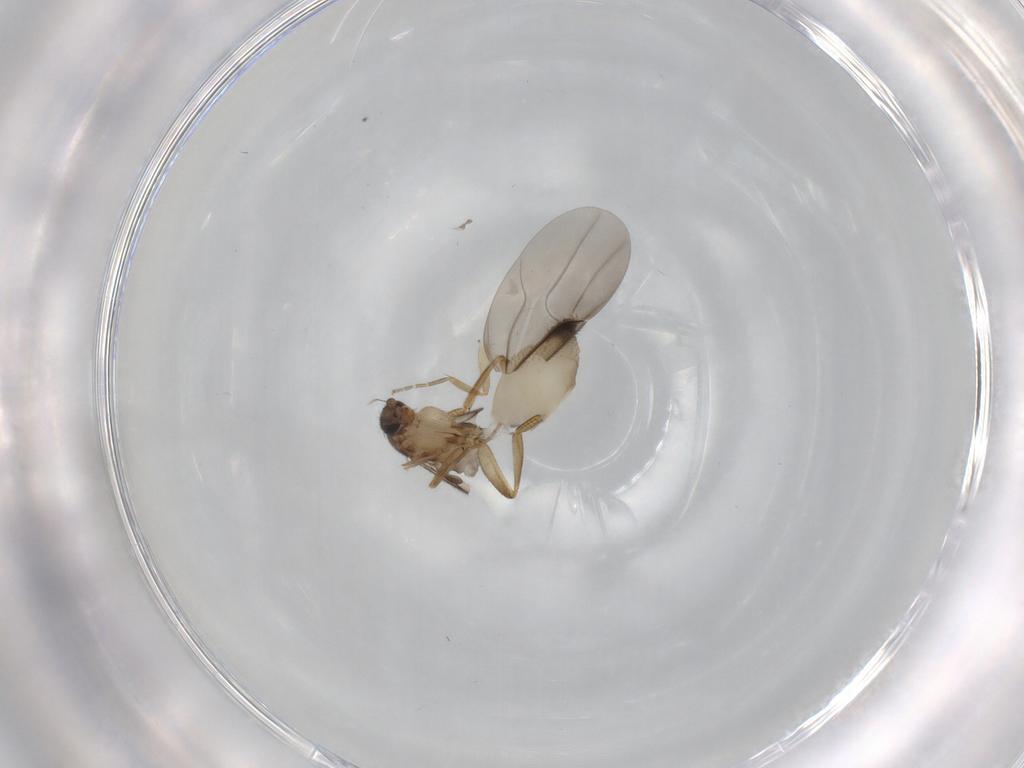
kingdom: Animalia
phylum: Arthropoda
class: Insecta
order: Diptera
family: Phoridae
